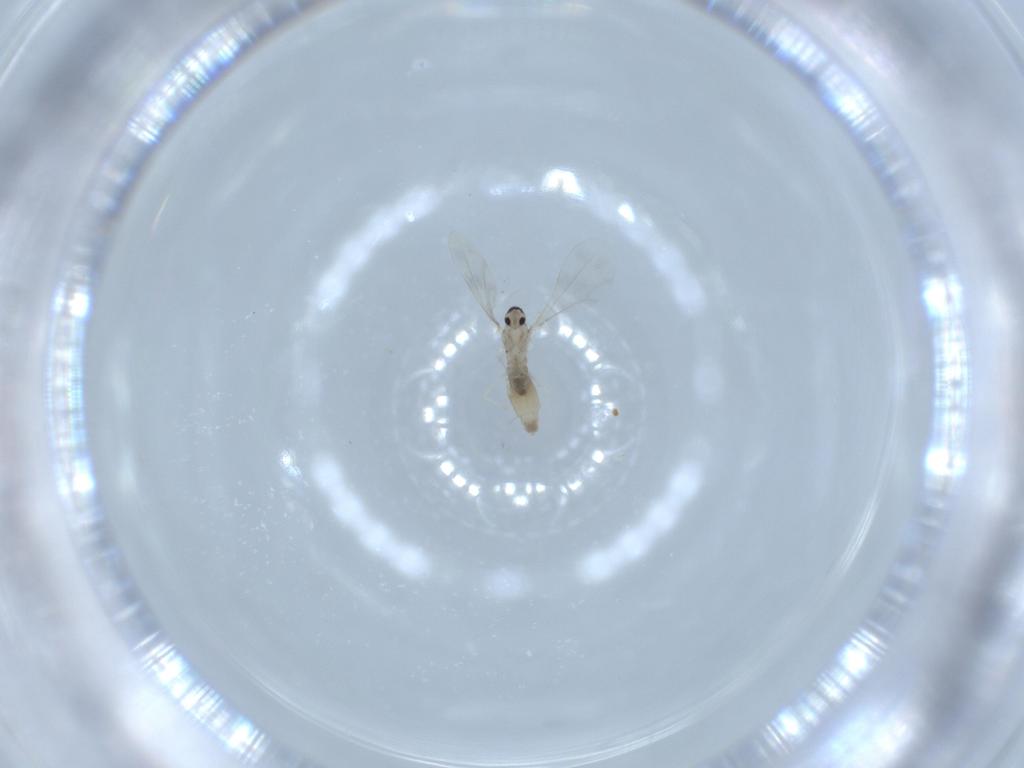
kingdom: Animalia
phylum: Arthropoda
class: Insecta
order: Diptera
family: Cecidomyiidae
